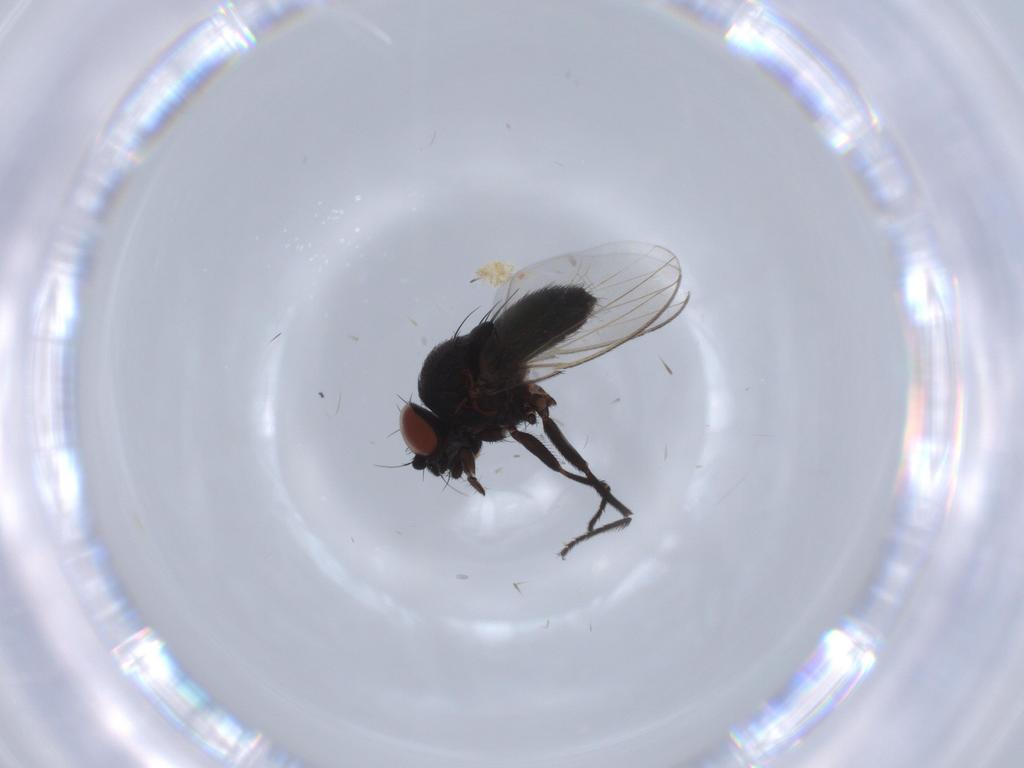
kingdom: Animalia
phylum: Arthropoda
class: Insecta
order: Diptera
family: Milichiidae
